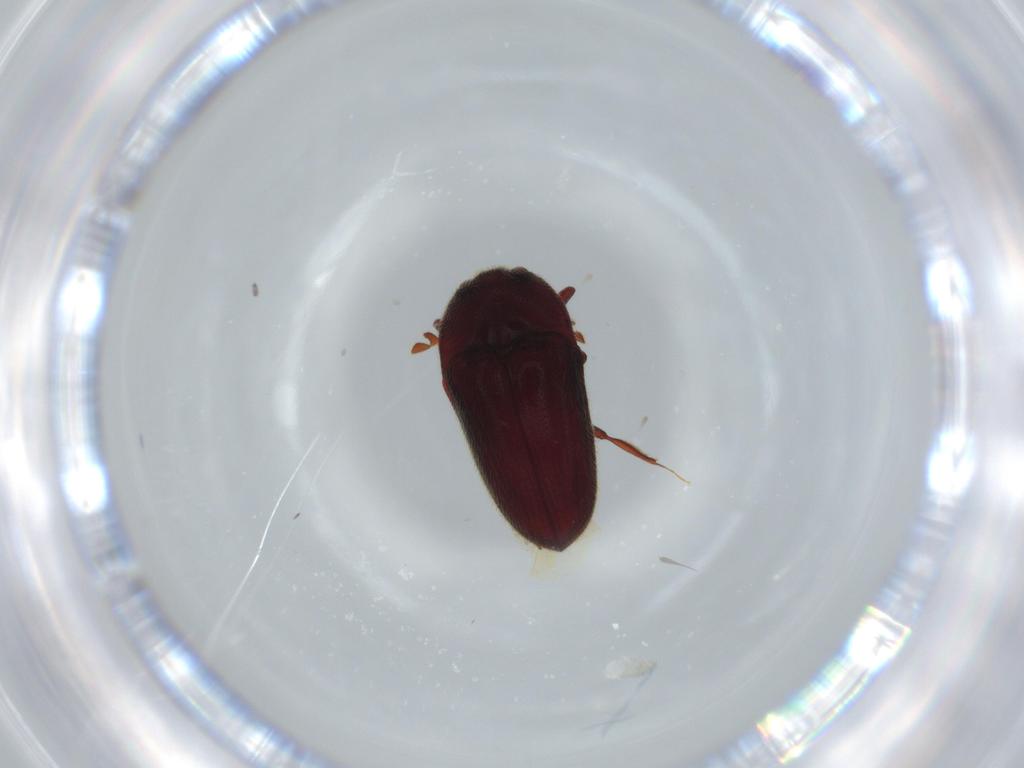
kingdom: Animalia
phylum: Arthropoda
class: Insecta
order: Coleoptera
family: Throscidae
